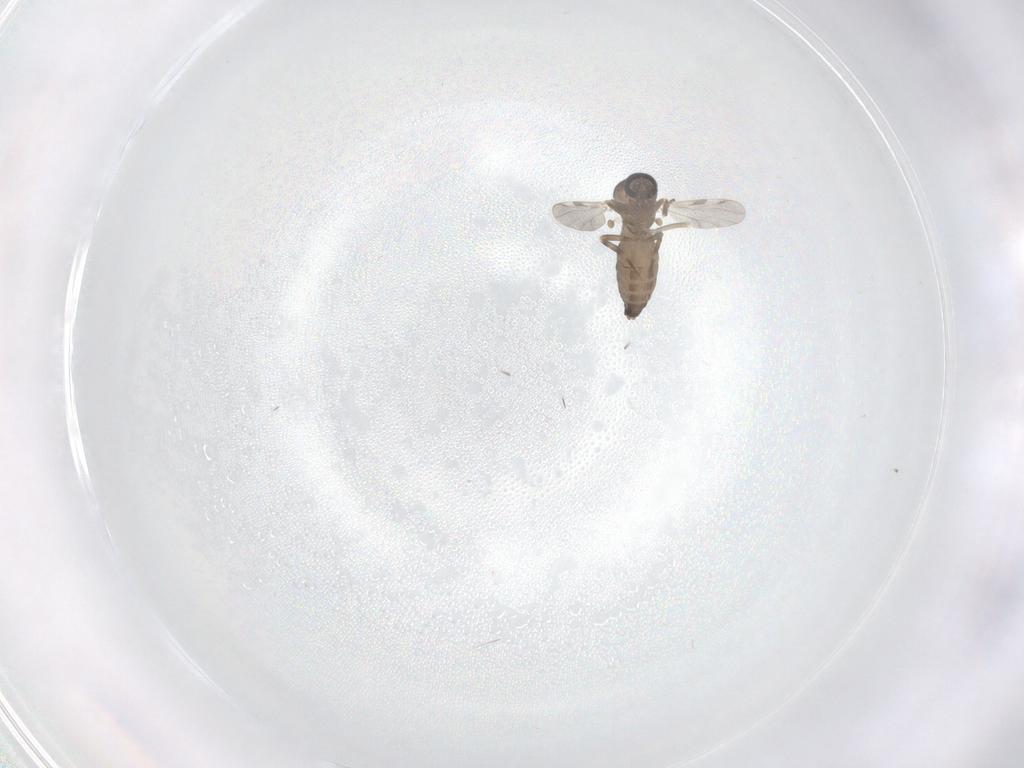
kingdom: Animalia
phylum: Arthropoda
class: Insecta
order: Diptera
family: Ceratopogonidae
